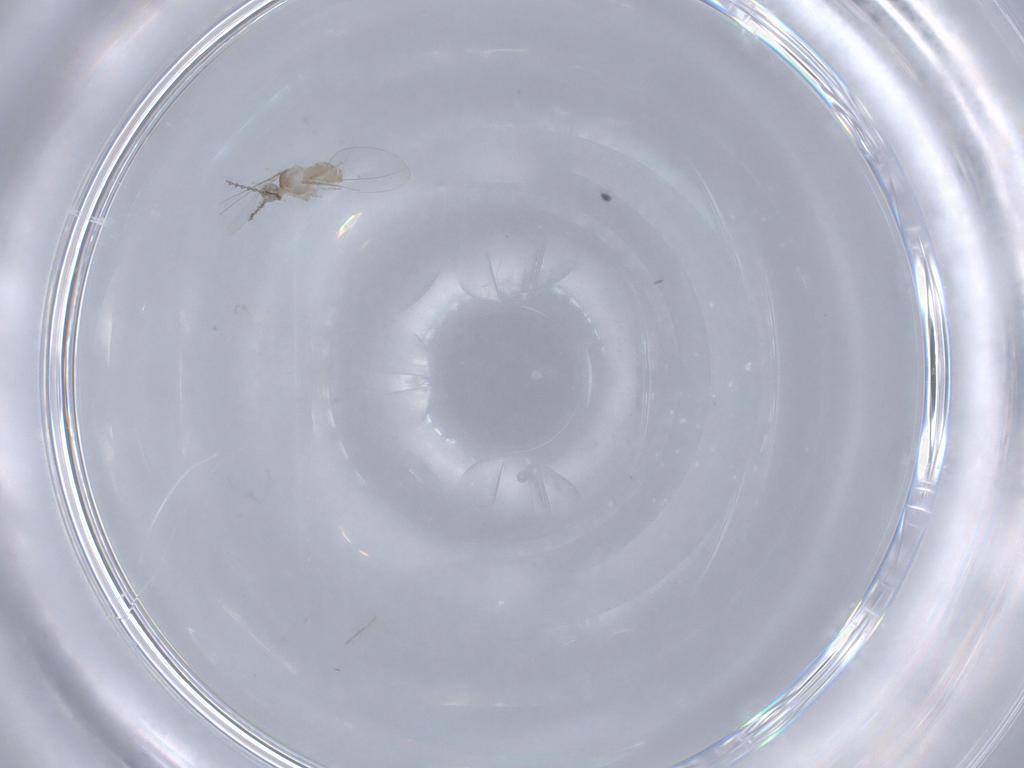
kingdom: Animalia
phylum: Arthropoda
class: Insecta
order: Diptera
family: Cecidomyiidae
